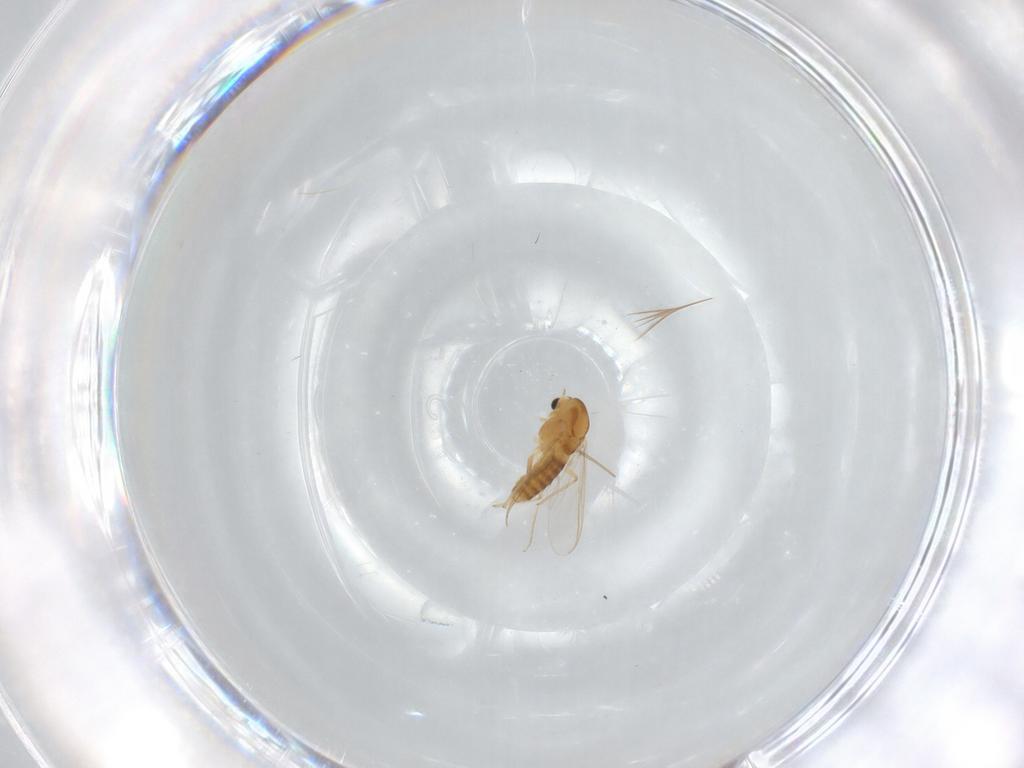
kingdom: Animalia
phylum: Arthropoda
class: Insecta
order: Diptera
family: Chironomidae
